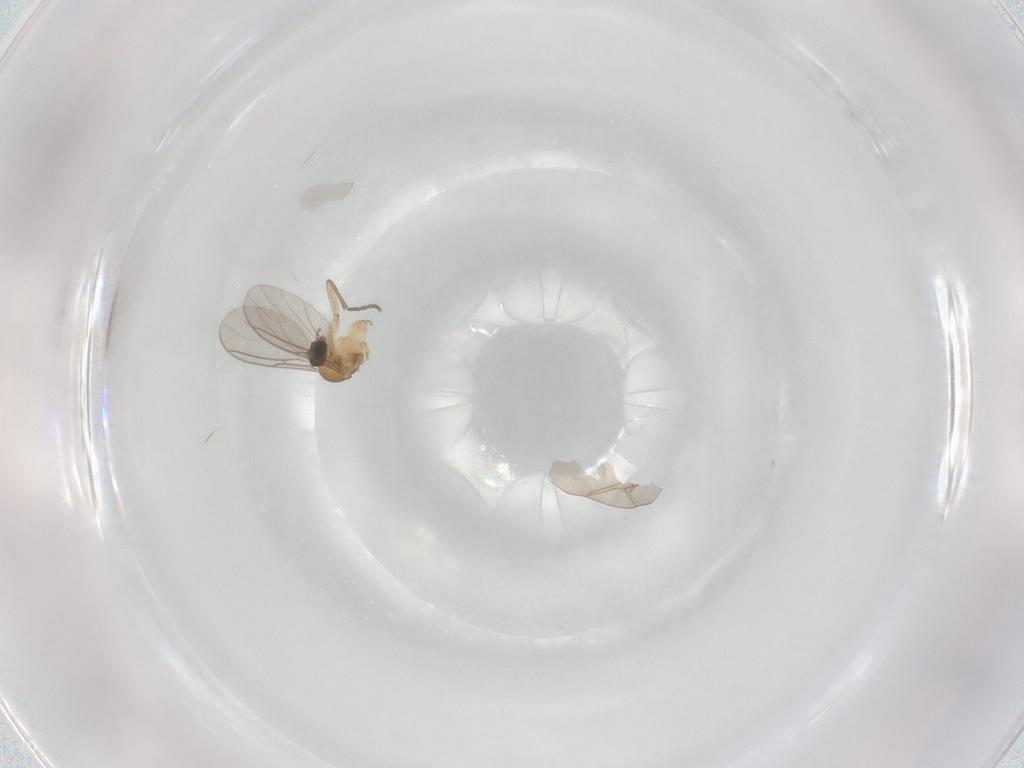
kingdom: Animalia
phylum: Arthropoda
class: Insecta
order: Diptera
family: Sciaridae
